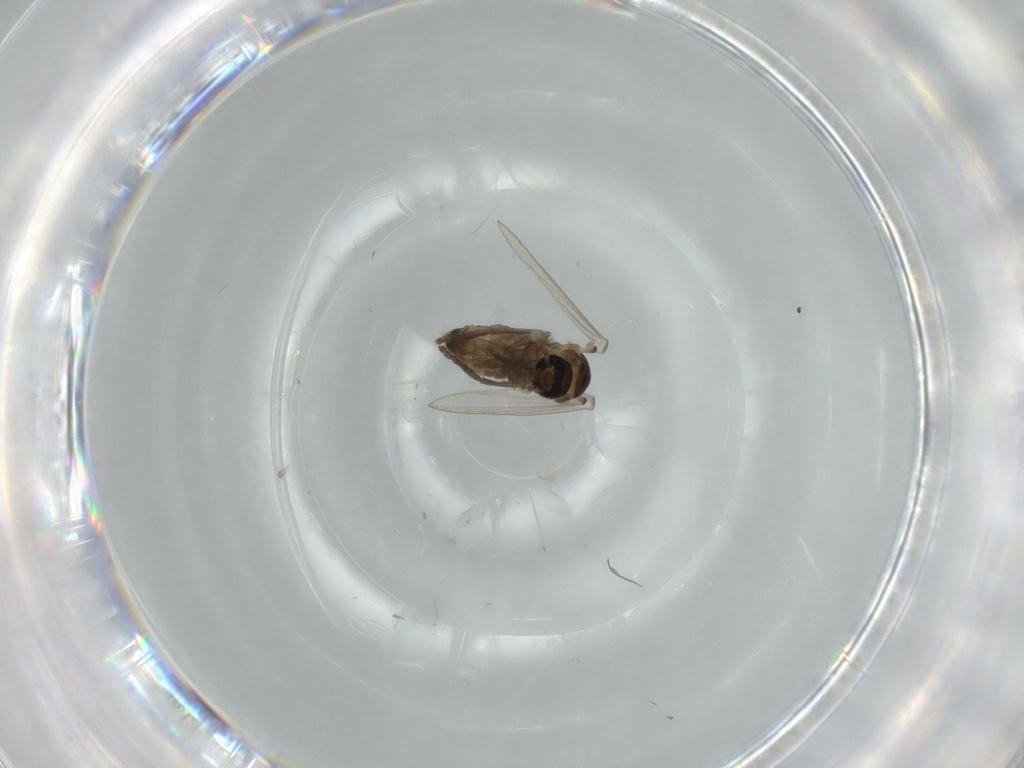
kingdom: Animalia
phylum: Arthropoda
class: Insecta
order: Diptera
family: Psychodidae
